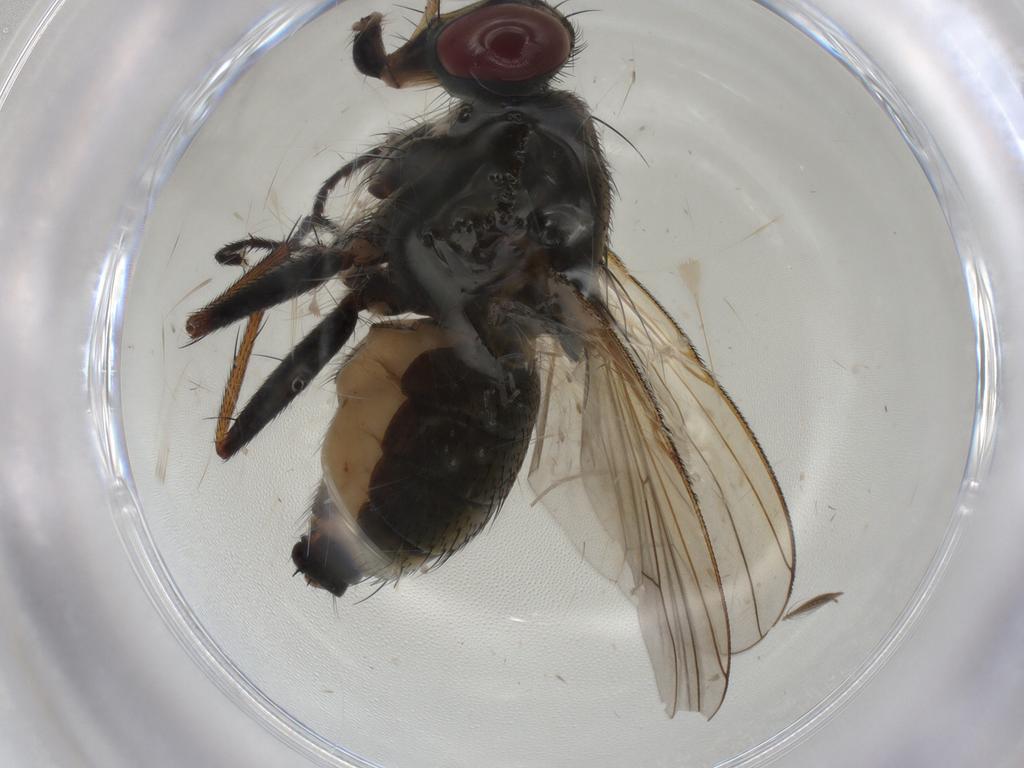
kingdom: Animalia
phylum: Arthropoda
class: Insecta
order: Diptera
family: Muscidae
